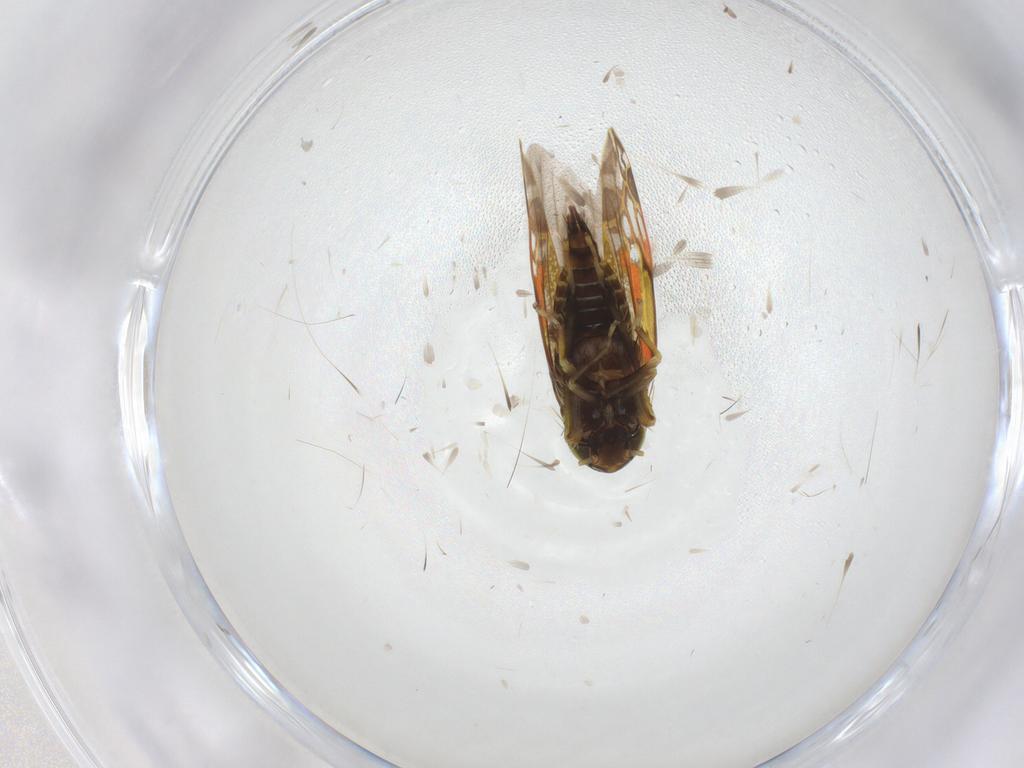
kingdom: Animalia
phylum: Arthropoda
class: Insecta
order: Hemiptera
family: Cicadellidae
